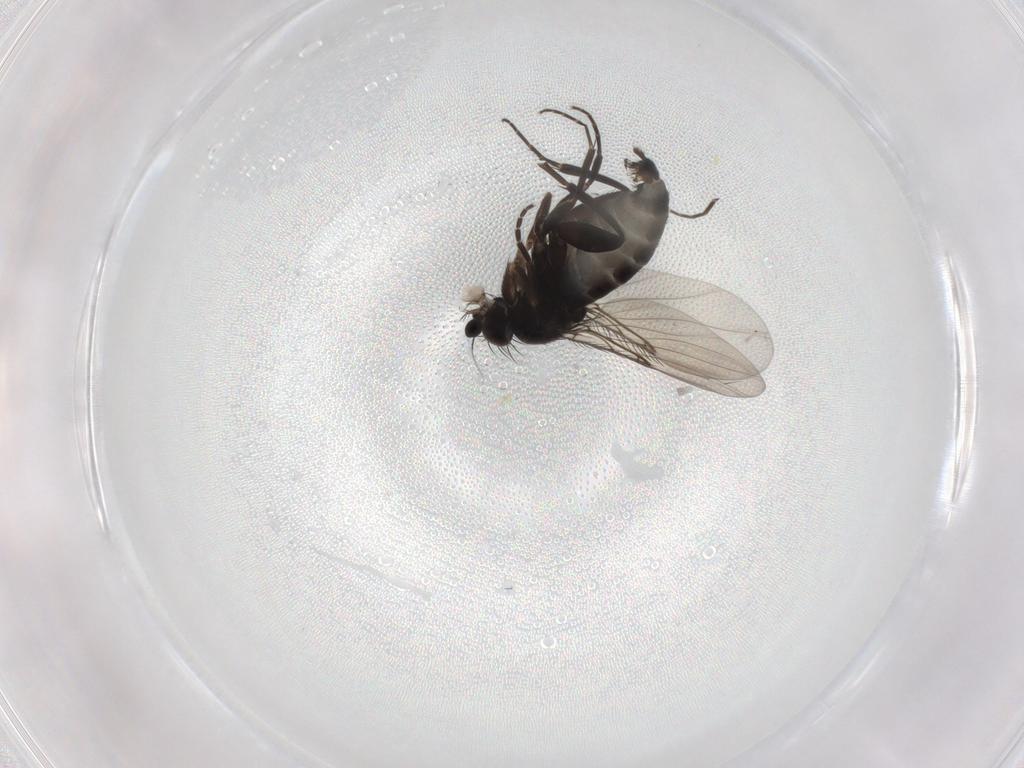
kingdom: Animalia
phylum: Arthropoda
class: Insecta
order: Diptera
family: Phoridae
